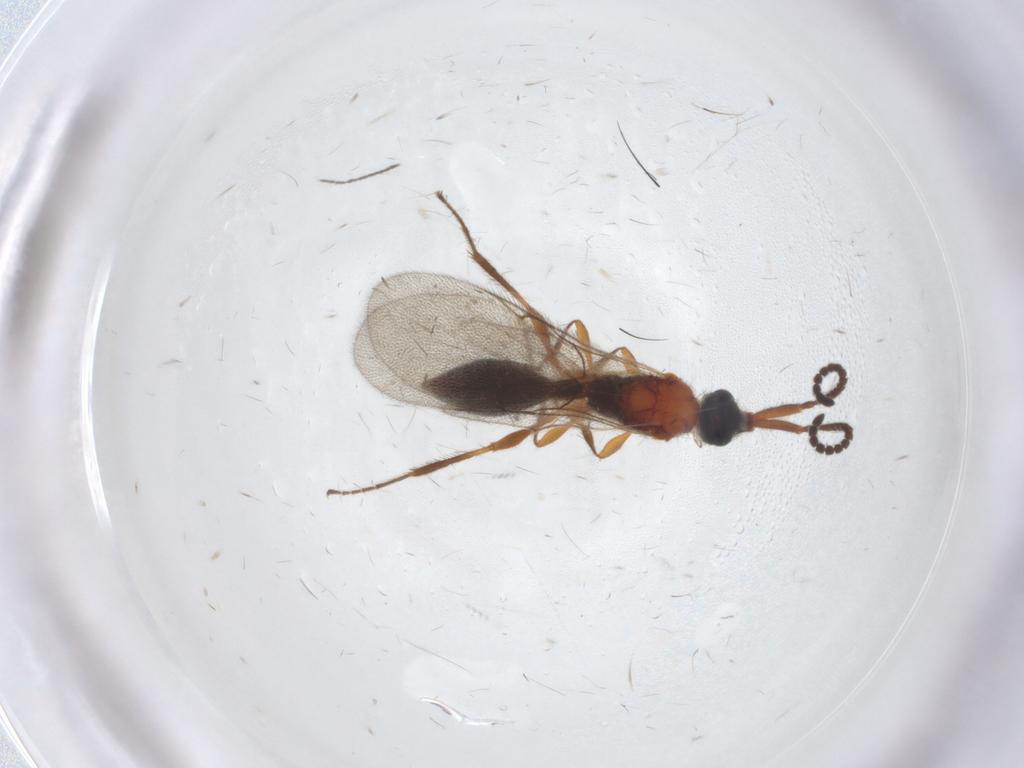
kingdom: Animalia
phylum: Arthropoda
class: Insecta
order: Hymenoptera
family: Diapriidae
